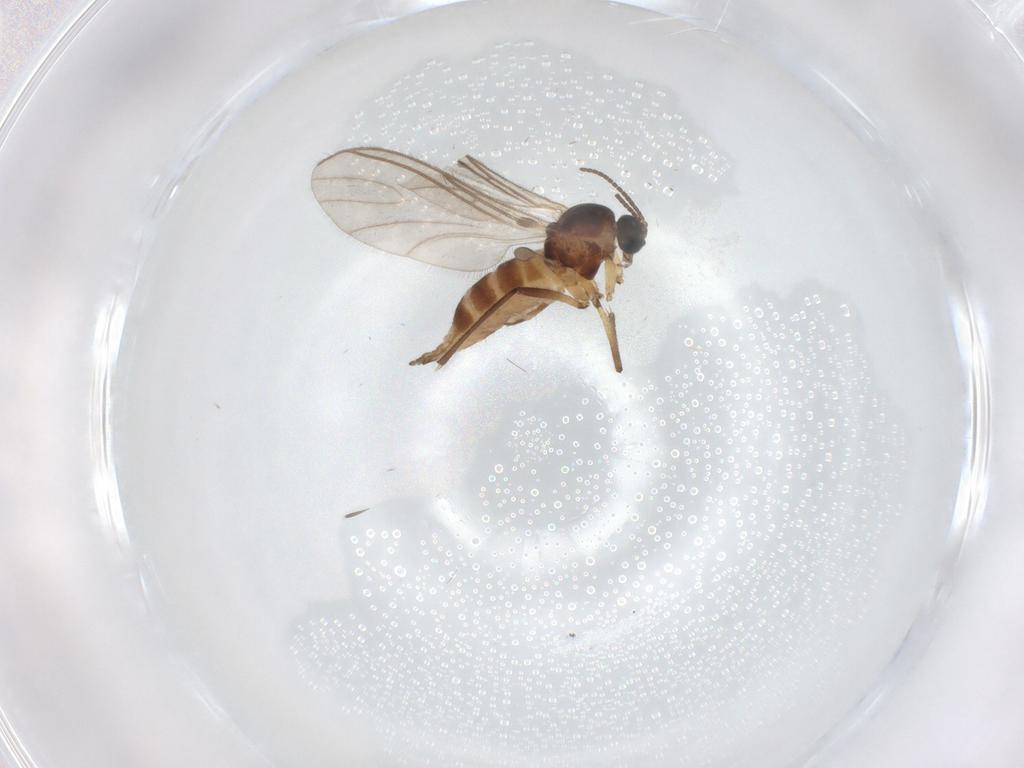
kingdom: Animalia
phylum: Arthropoda
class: Insecta
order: Diptera
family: Sciaridae
